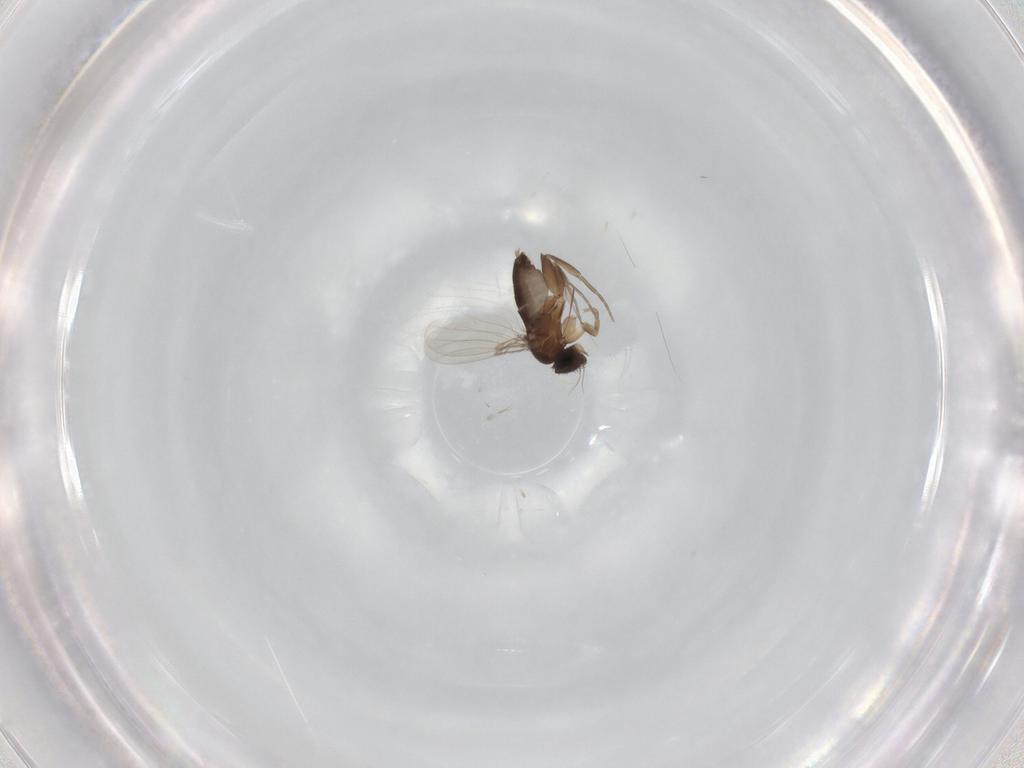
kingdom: Animalia
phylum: Arthropoda
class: Insecta
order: Diptera
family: Phoridae
